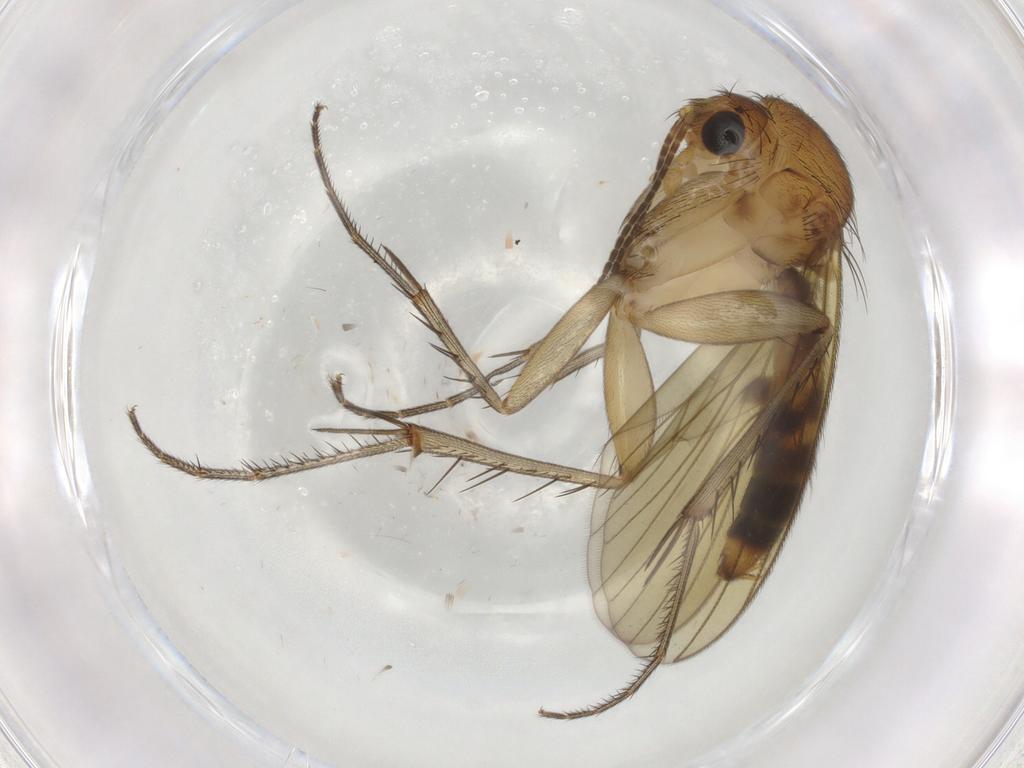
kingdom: Animalia
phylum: Arthropoda
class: Insecta
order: Diptera
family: Mycetophilidae
